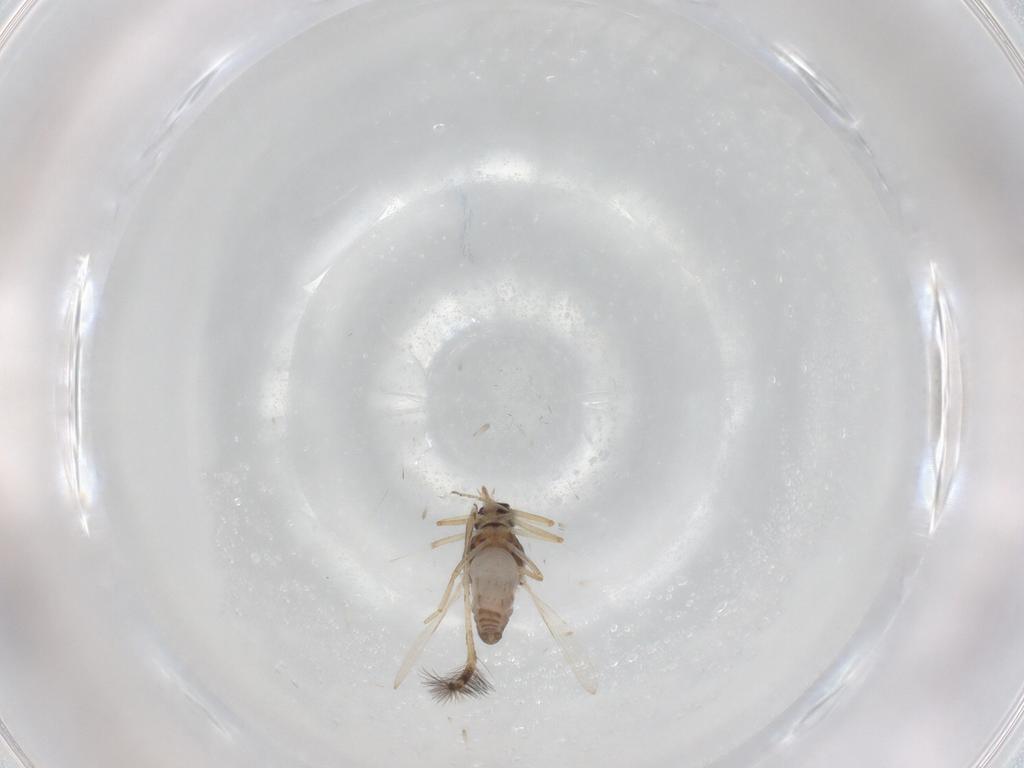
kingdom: Animalia
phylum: Arthropoda
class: Insecta
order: Diptera
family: Ceratopogonidae
